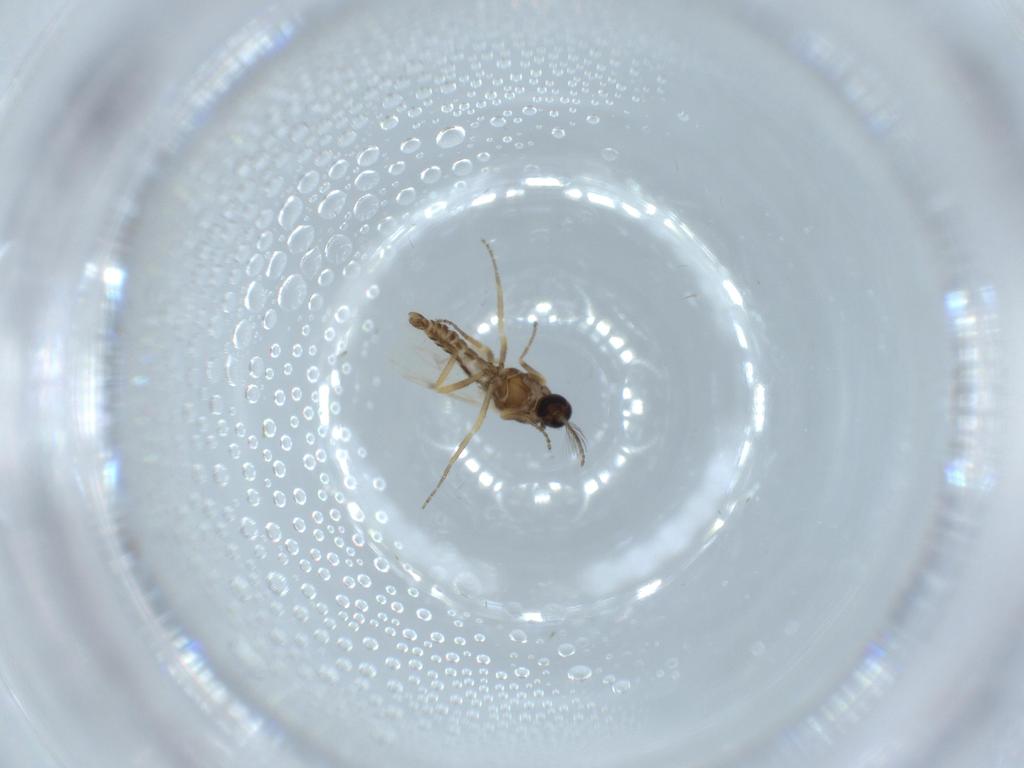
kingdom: Animalia
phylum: Arthropoda
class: Insecta
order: Diptera
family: Ceratopogonidae
